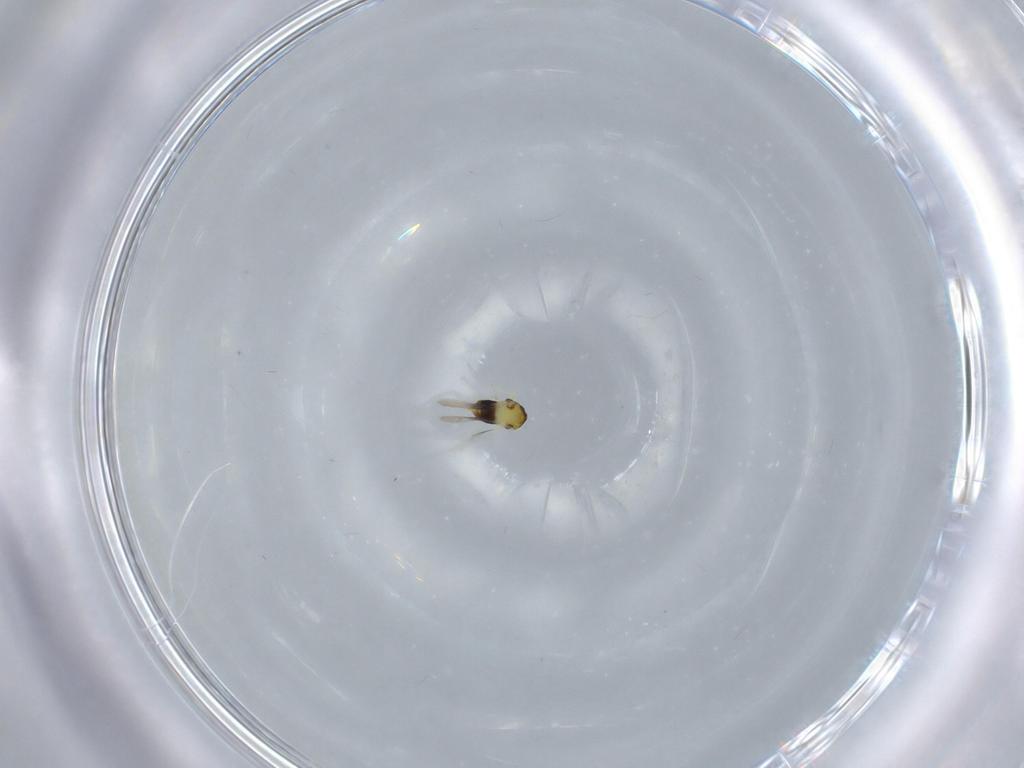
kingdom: Animalia
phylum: Arthropoda
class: Insecta
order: Hymenoptera
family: Aphelinidae
